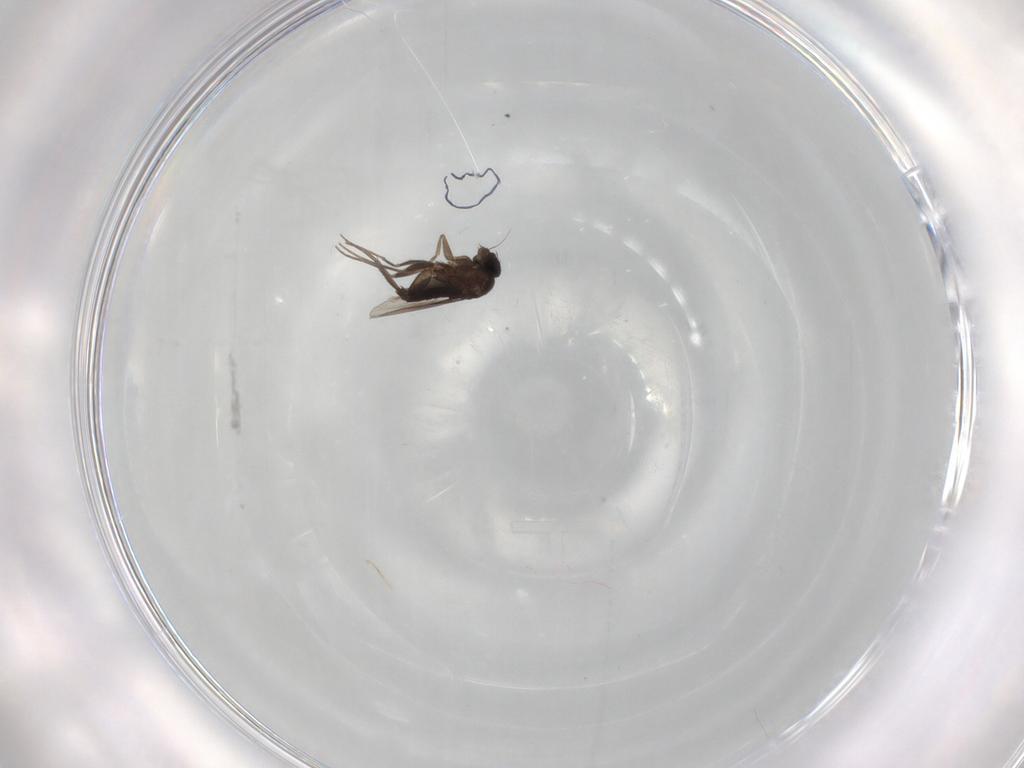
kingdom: Animalia
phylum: Arthropoda
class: Insecta
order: Diptera
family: Phoridae
